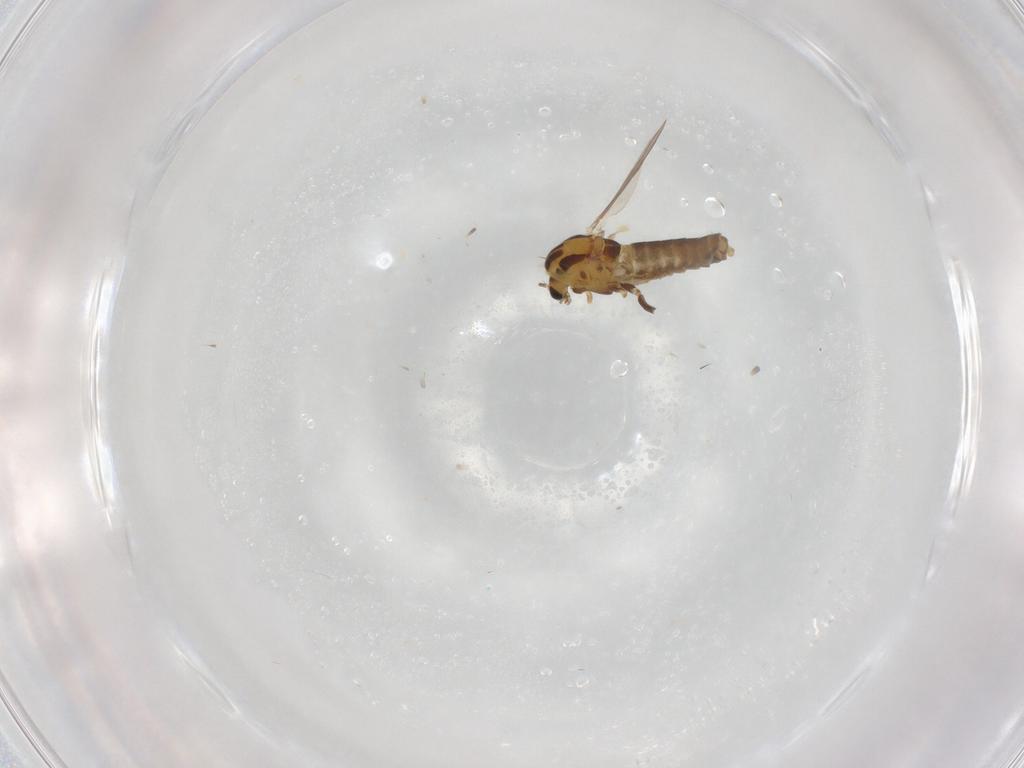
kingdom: Animalia
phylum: Arthropoda
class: Insecta
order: Diptera
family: Chironomidae
